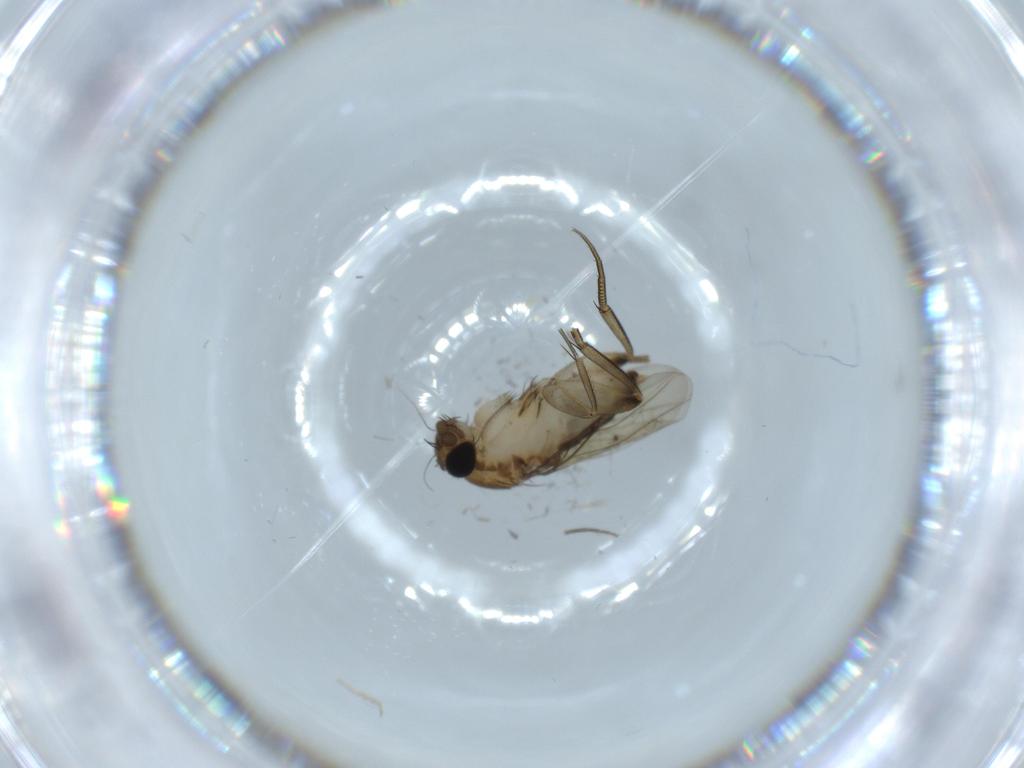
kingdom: Animalia
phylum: Arthropoda
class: Insecta
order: Diptera
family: Phoridae
